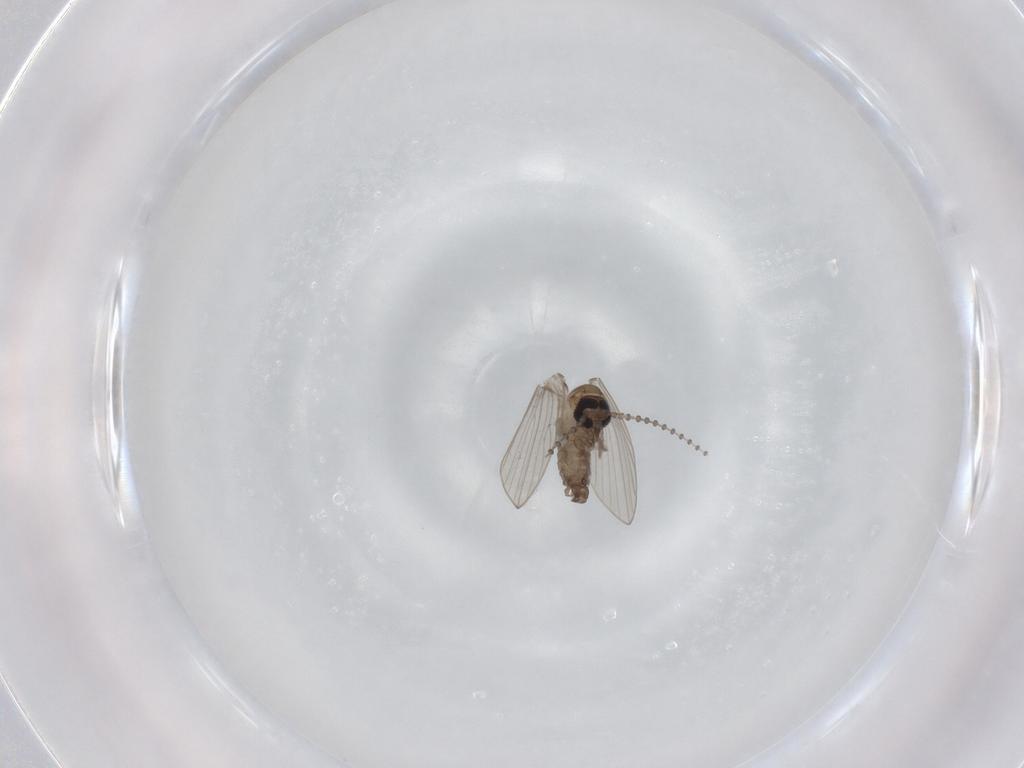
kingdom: Animalia
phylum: Arthropoda
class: Insecta
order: Diptera
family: Psychodidae
